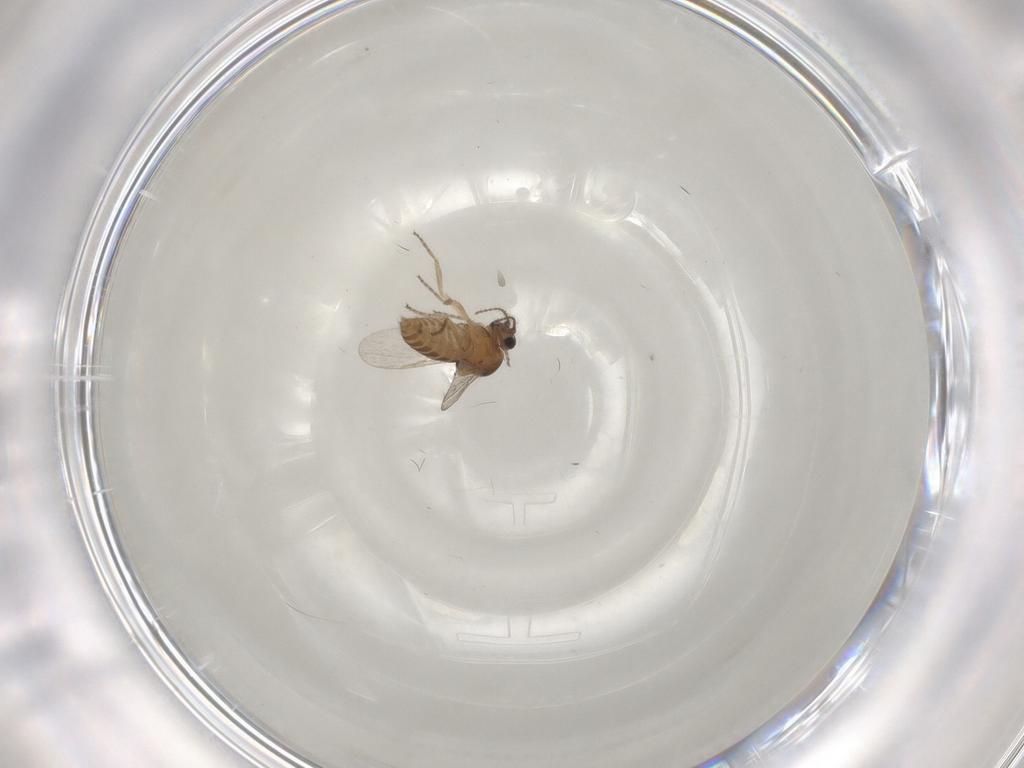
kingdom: Animalia
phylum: Arthropoda
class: Insecta
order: Diptera
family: Ceratopogonidae
